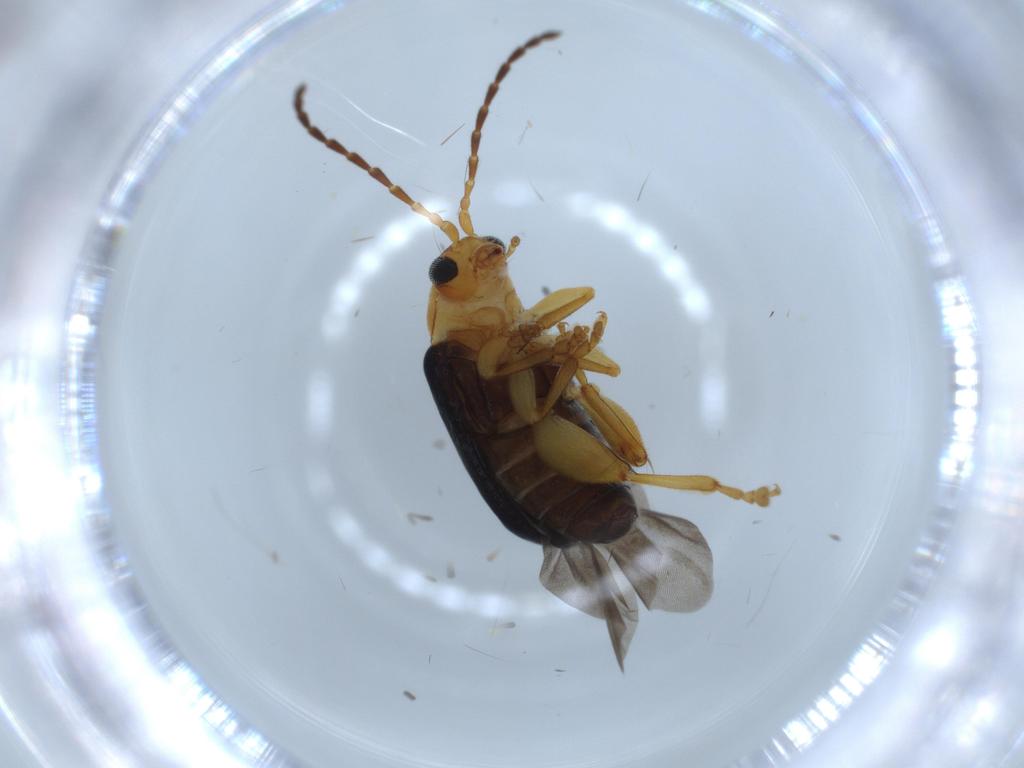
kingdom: Animalia
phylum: Arthropoda
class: Insecta
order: Coleoptera
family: Chrysomelidae
